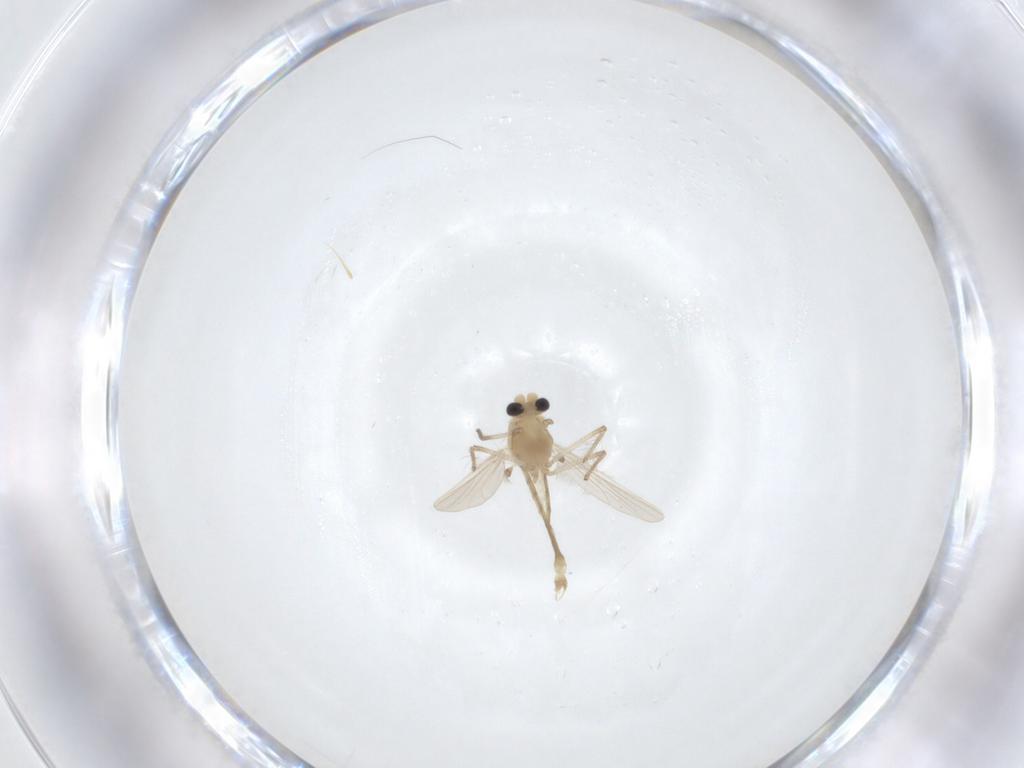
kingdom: Animalia
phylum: Arthropoda
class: Insecta
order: Diptera
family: Chironomidae
